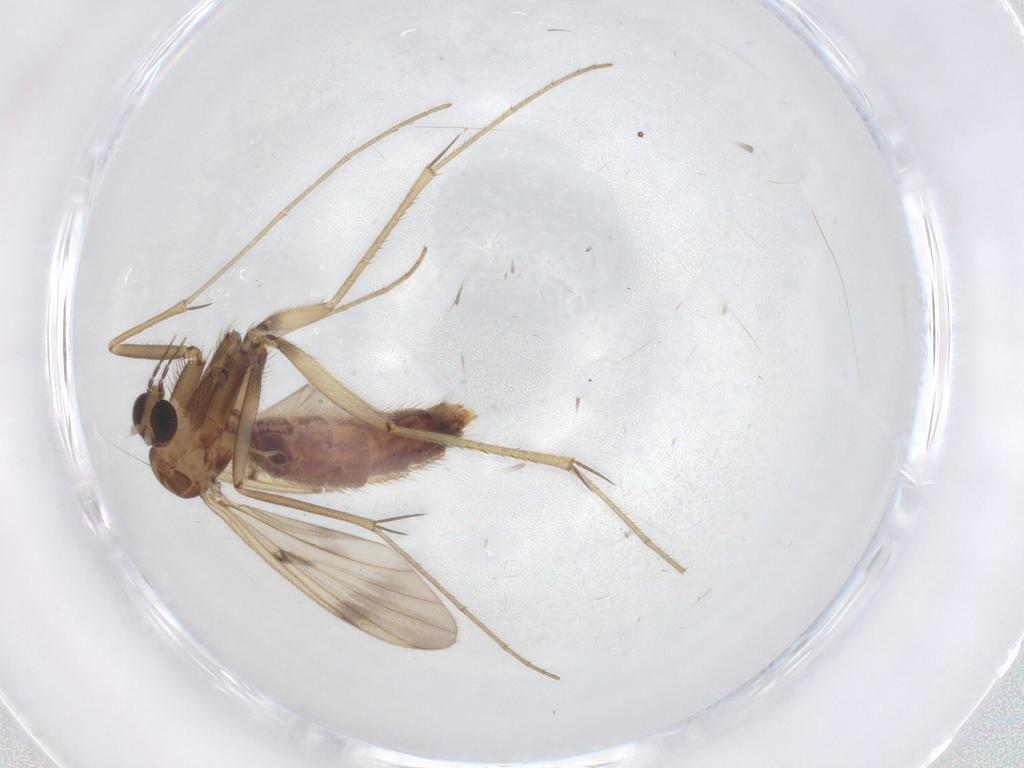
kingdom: Animalia
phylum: Arthropoda
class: Insecta
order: Diptera
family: Mycetophilidae
